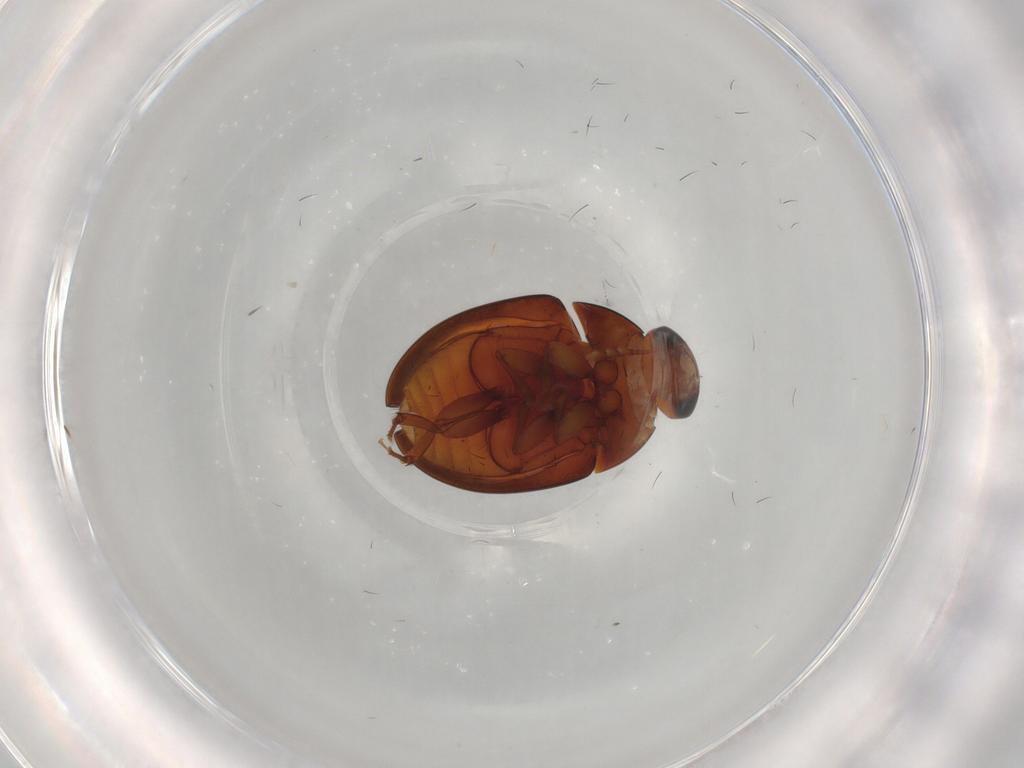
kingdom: Animalia
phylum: Arthropoda
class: Insecta
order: Coleoptera
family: Phalacridae
